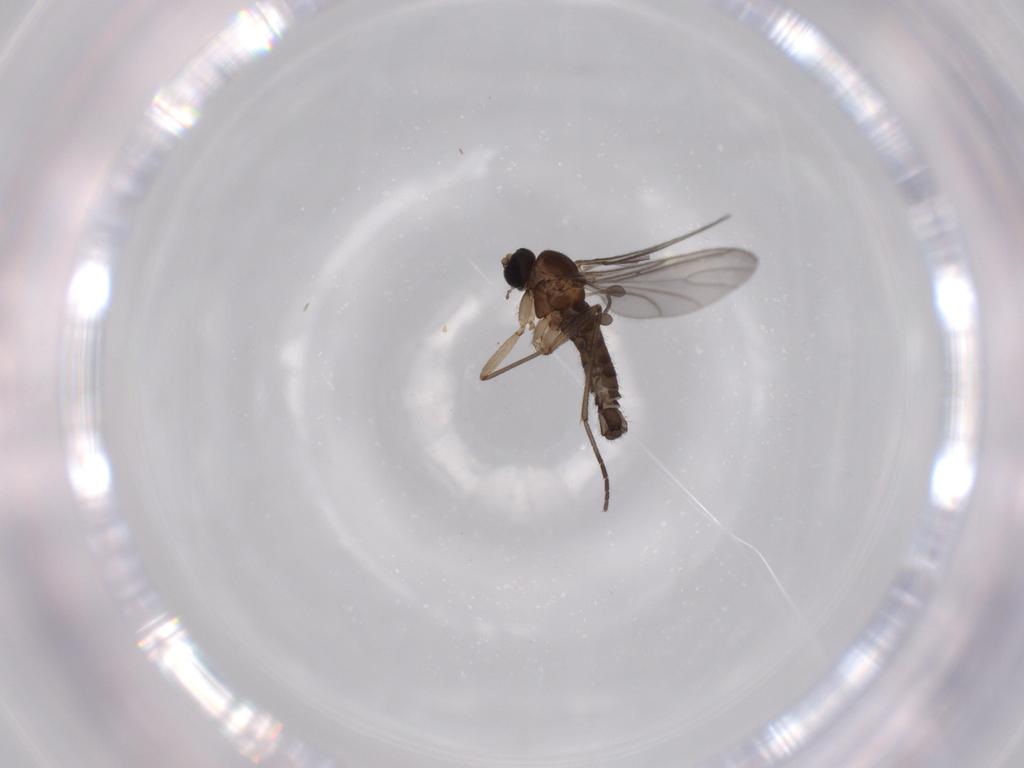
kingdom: Animalia
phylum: Arthropoda
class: Insecta
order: Diptera
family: Sciaridae
